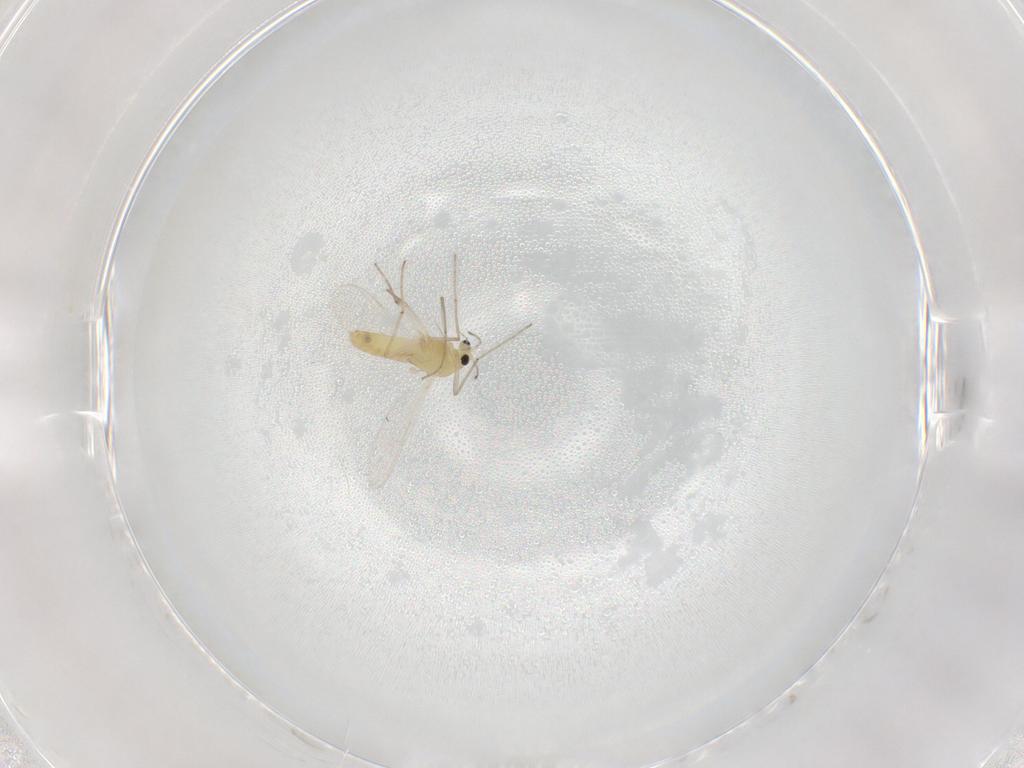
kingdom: Animalia
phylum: Arthropoda
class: Insecta
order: Diptera
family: Chironomidae
